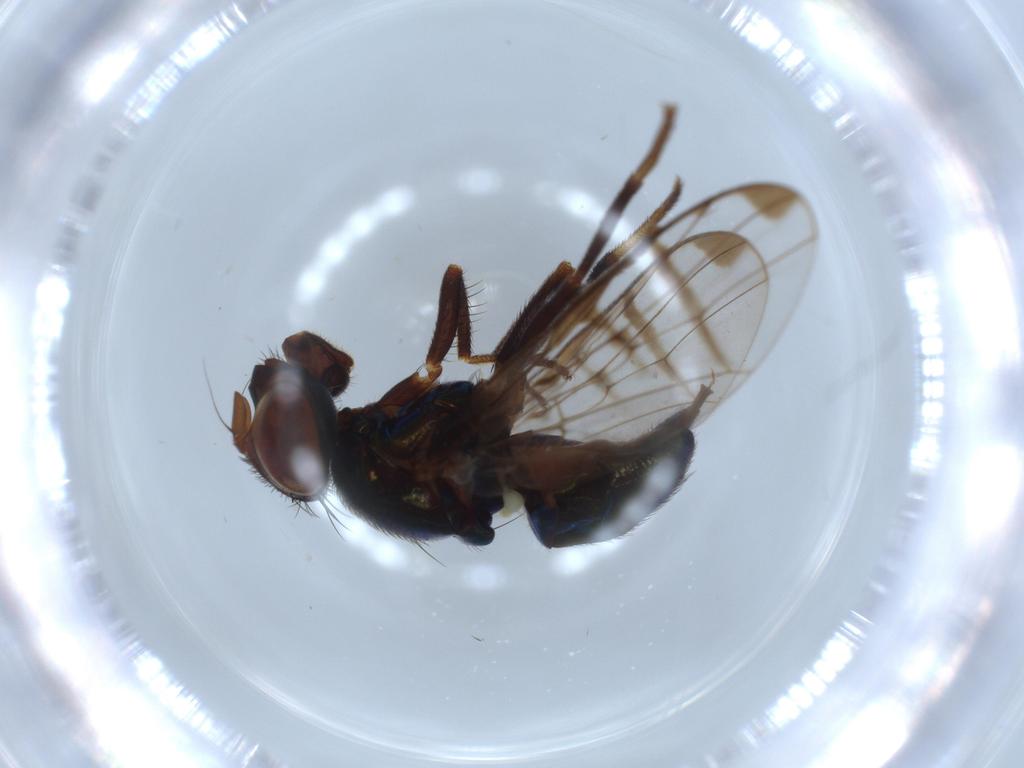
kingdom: Animalia
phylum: Arthropoda
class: Insecta
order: Diptera
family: Platystomatidae
